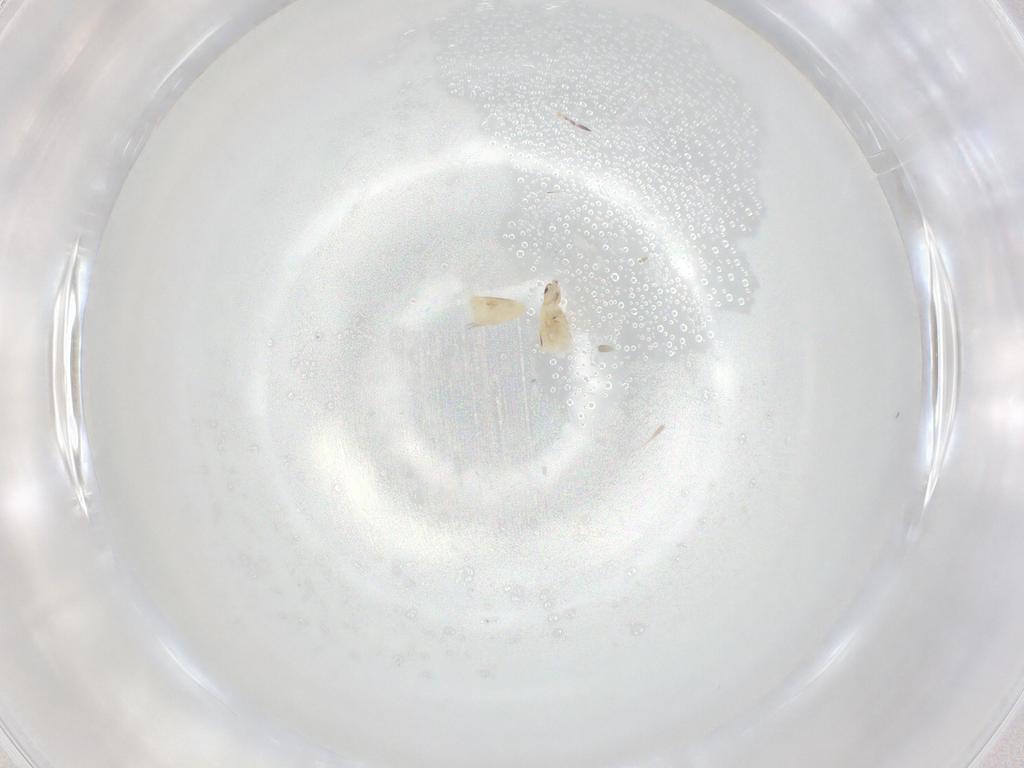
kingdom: Animalia
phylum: Arthropoda
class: Collembola
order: Entomobryomorpha
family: Entomobryidae
